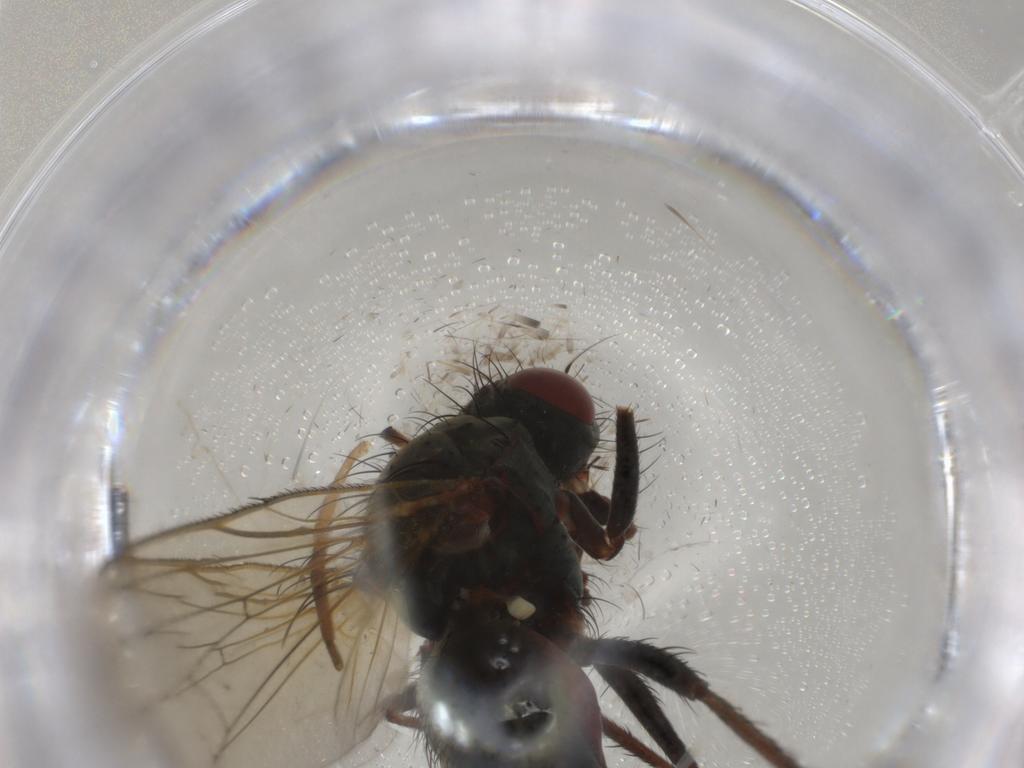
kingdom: Animalia
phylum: Arthropoda
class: Insecta
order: Diptera
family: Anthomyiidae
